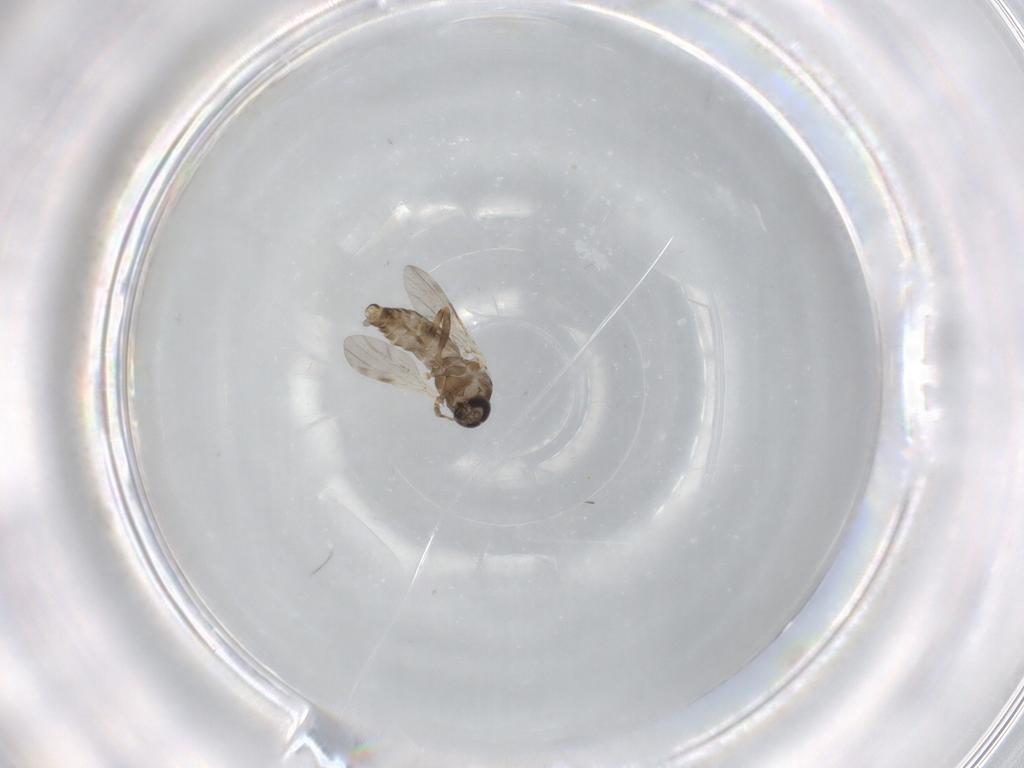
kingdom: Animalia
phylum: Arthropoda
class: Insecta
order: Diptera
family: Ceratopogonidae
